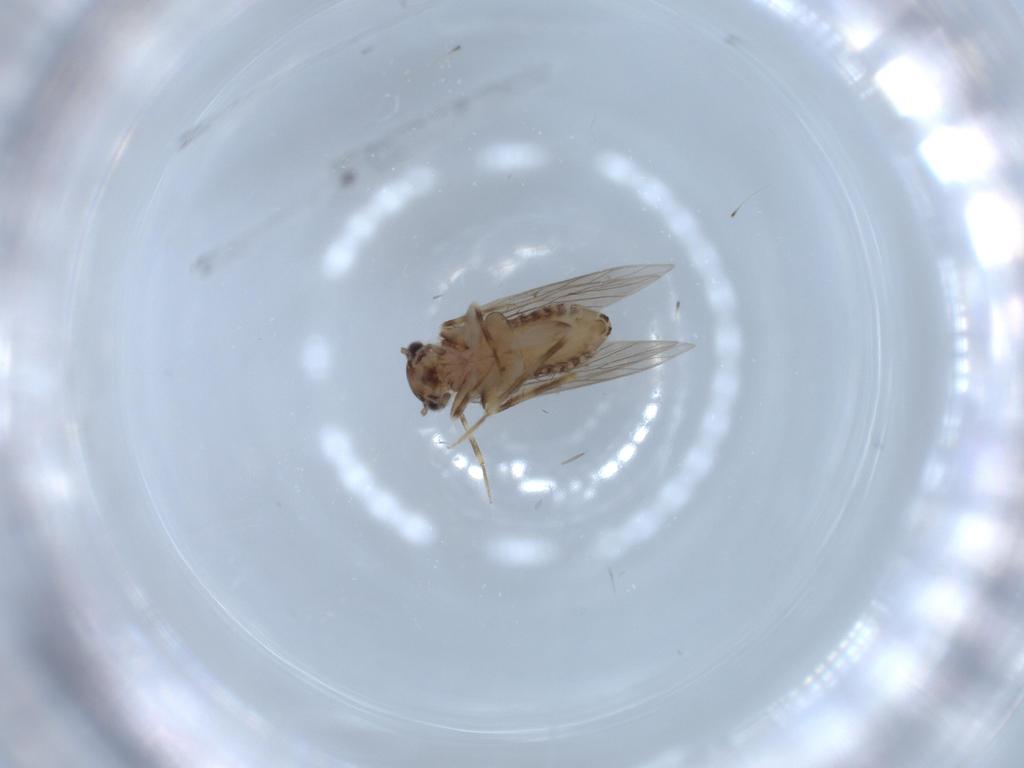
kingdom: Animalia
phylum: Arthropoda
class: Insecta
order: Psocodea
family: Lepidopsocidae
